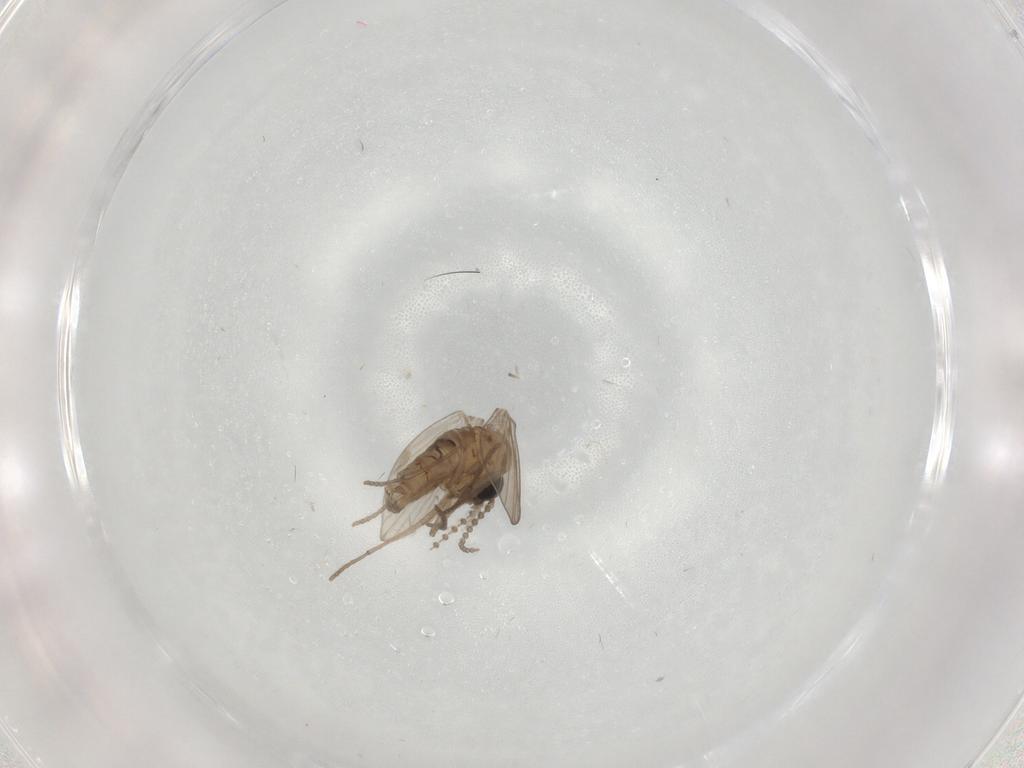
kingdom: Animalia
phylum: Arthropoda
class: Insecta
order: Diptera
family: Psychodidae
